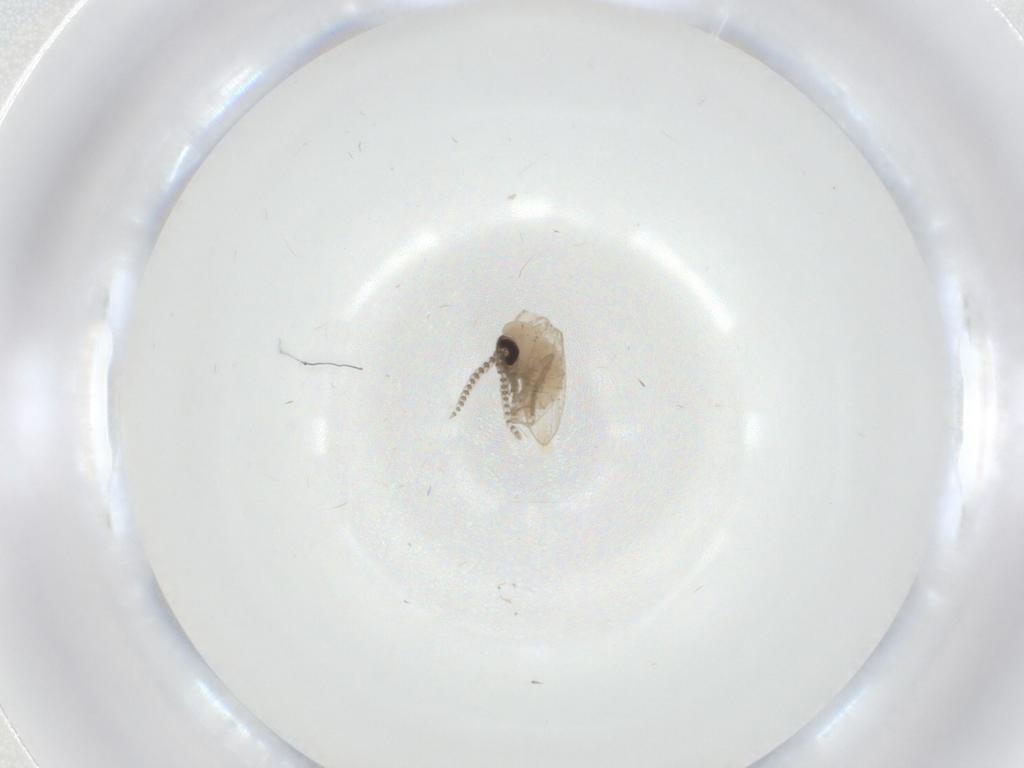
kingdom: Animalia
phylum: Arthropoda
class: Insecta
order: Diptera
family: Psychodidae
